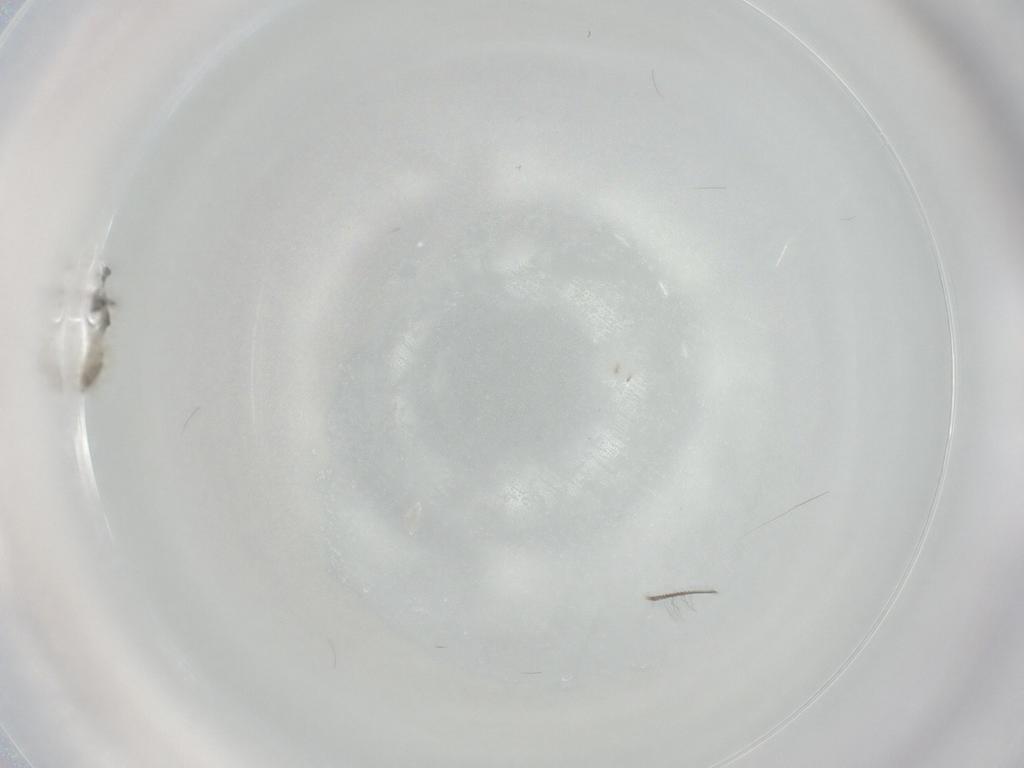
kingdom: Animalia
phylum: Arthropoda
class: Insecta
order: Diptera
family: Chironomidae
